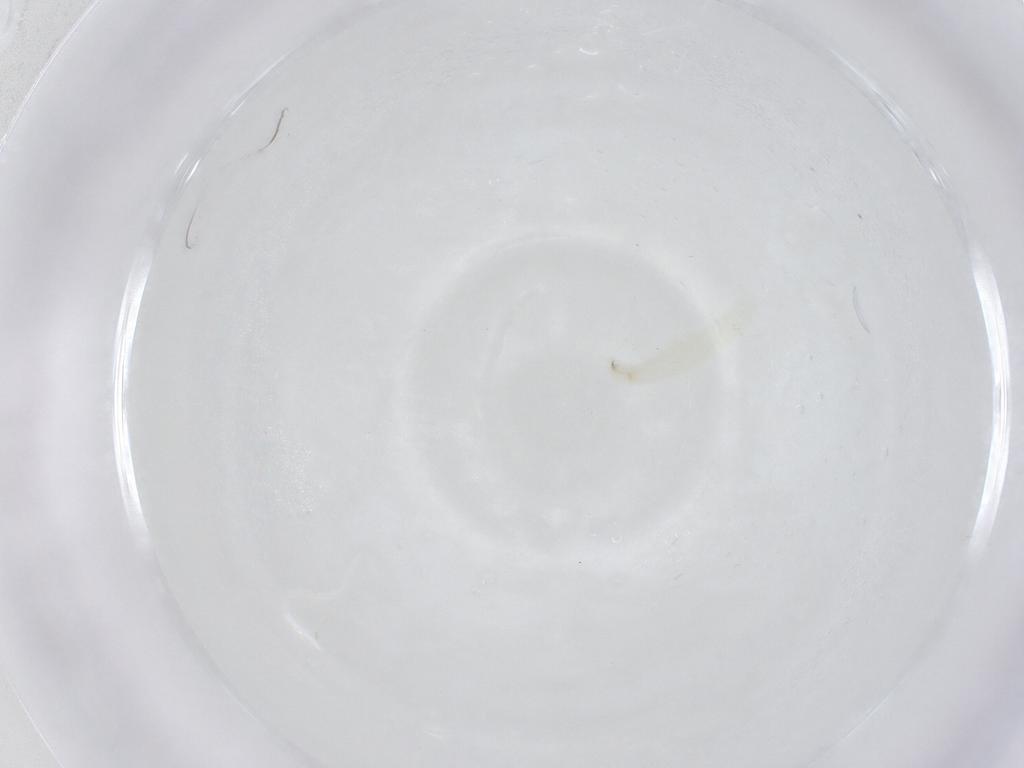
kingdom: Animalia
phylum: Arthropoda
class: Insecta
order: Diptera
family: Sarcophagidae
